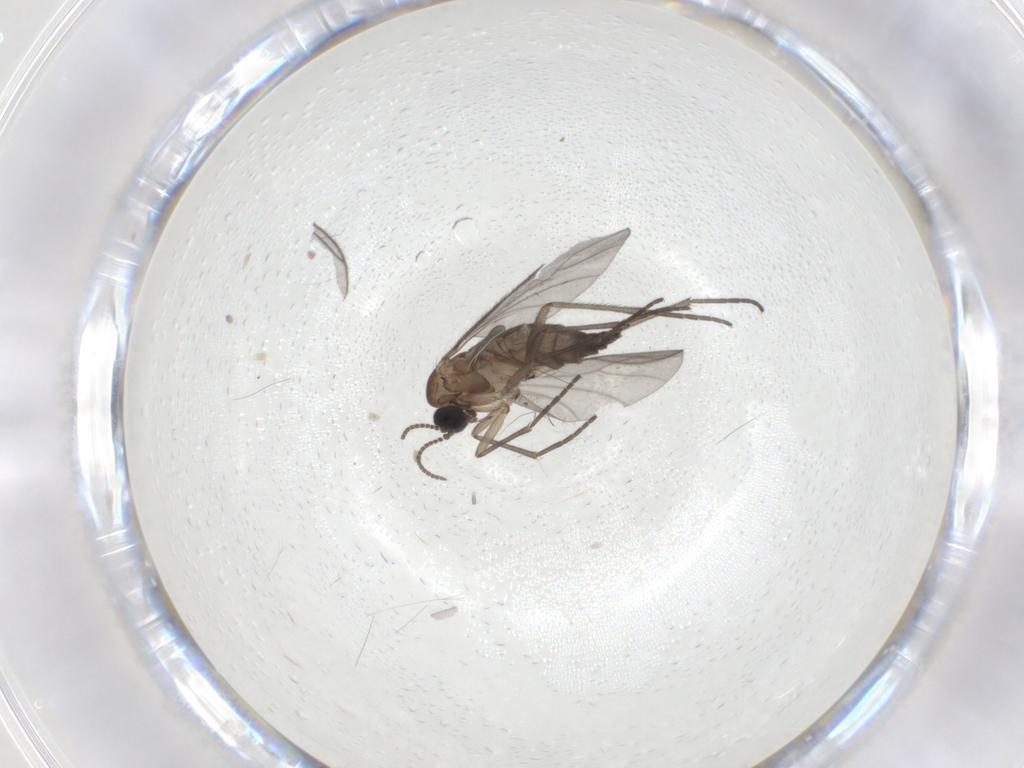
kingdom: Animalia
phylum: Arthropoda
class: Insecta
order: Diptera
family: Sciaridae
